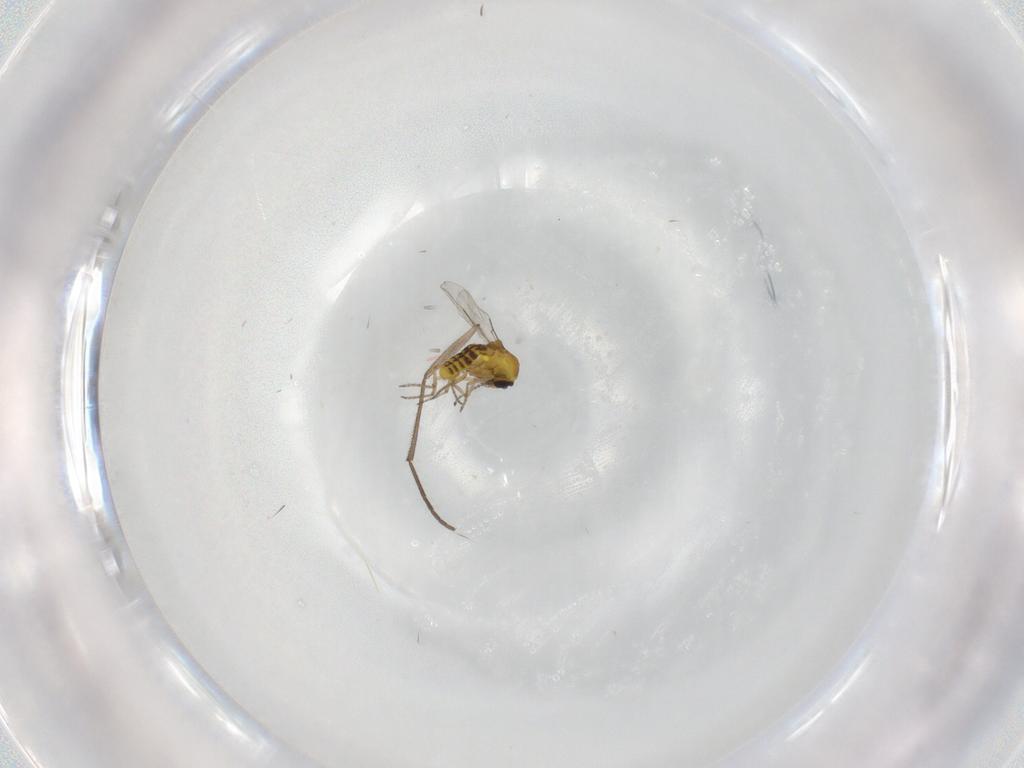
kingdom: Animalia
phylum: Arthropoda
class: Insecta
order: Diptera
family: Ceratopogonidae
